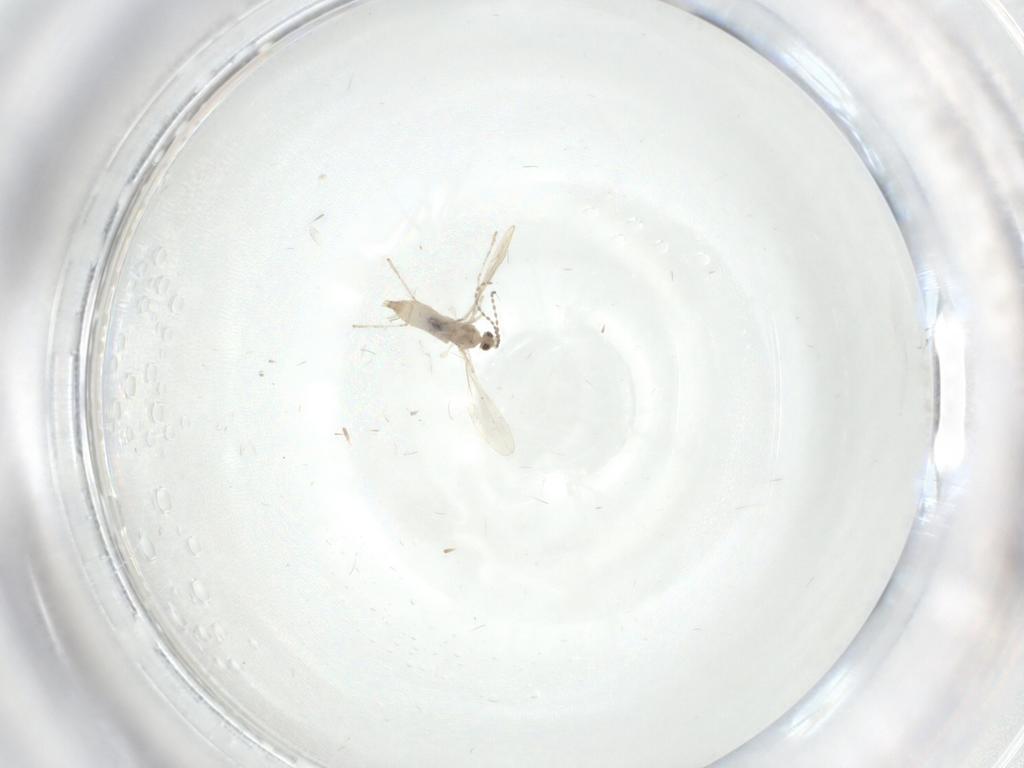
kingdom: Animalia
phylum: Arthropoda
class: Insecta
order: Diptera
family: Cecidomyiidae
